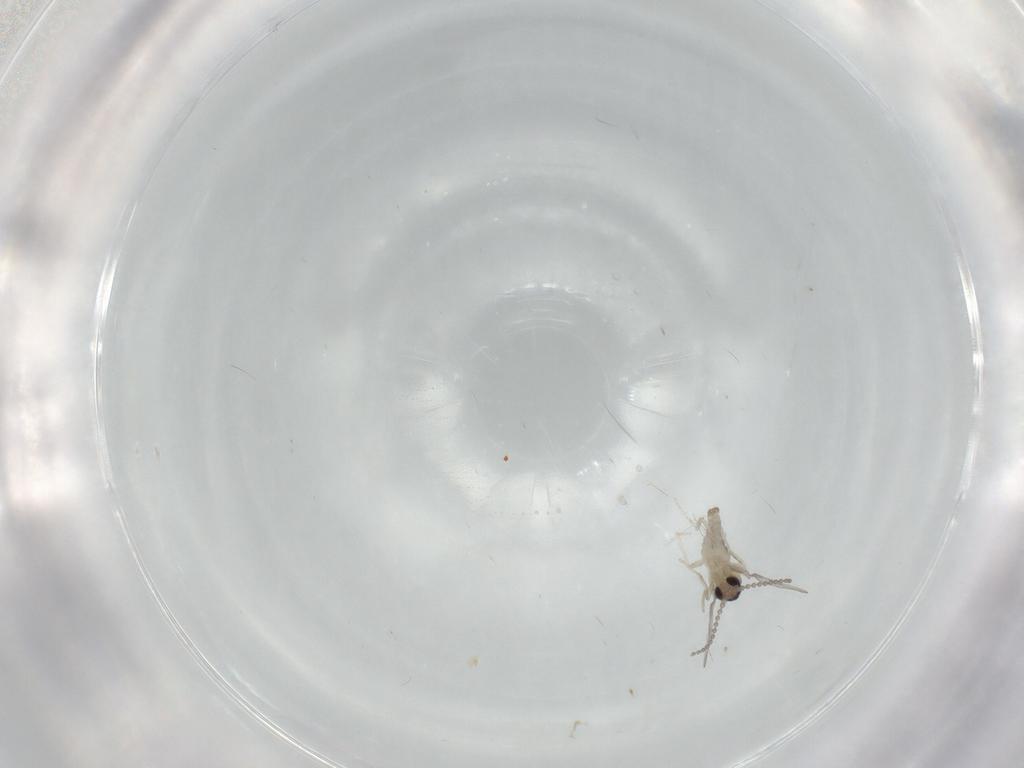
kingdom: Animalia
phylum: Arthropoda
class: Insecta
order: Diptera
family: Cecidomyiidae
